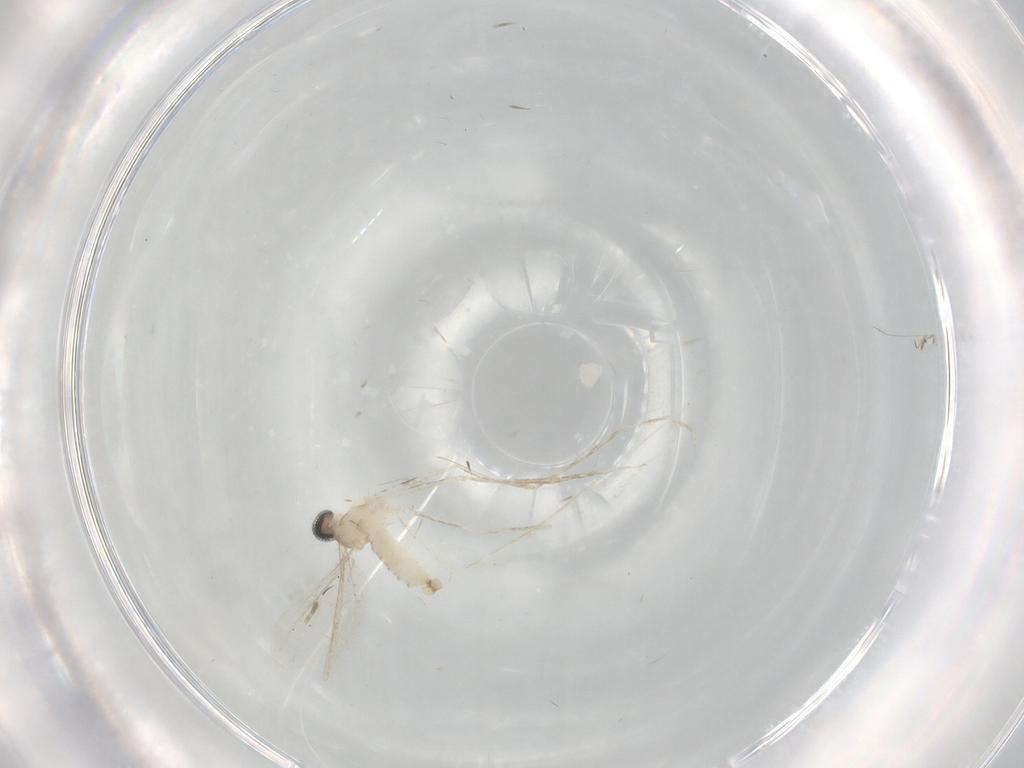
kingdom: Animalia
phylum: Arthropoda
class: Insecta
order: Diptera
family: Cecidomyiidae
